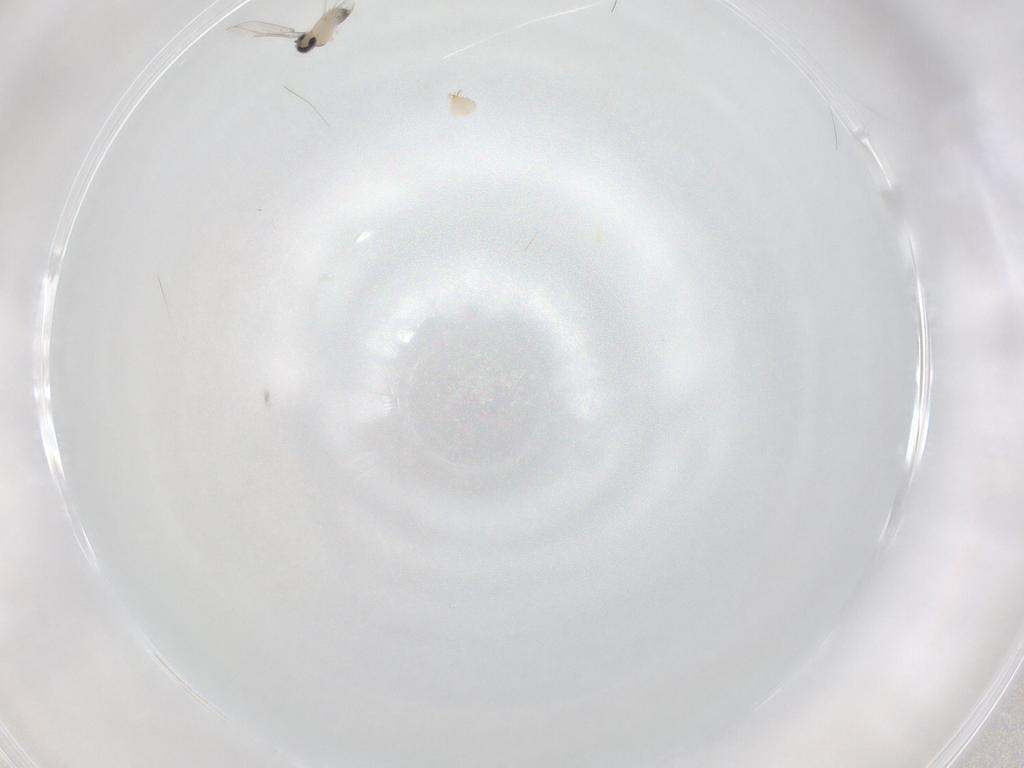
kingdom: Animalia
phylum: Arthropoda
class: Insecta
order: Diptera
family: Cecidomyiidae
